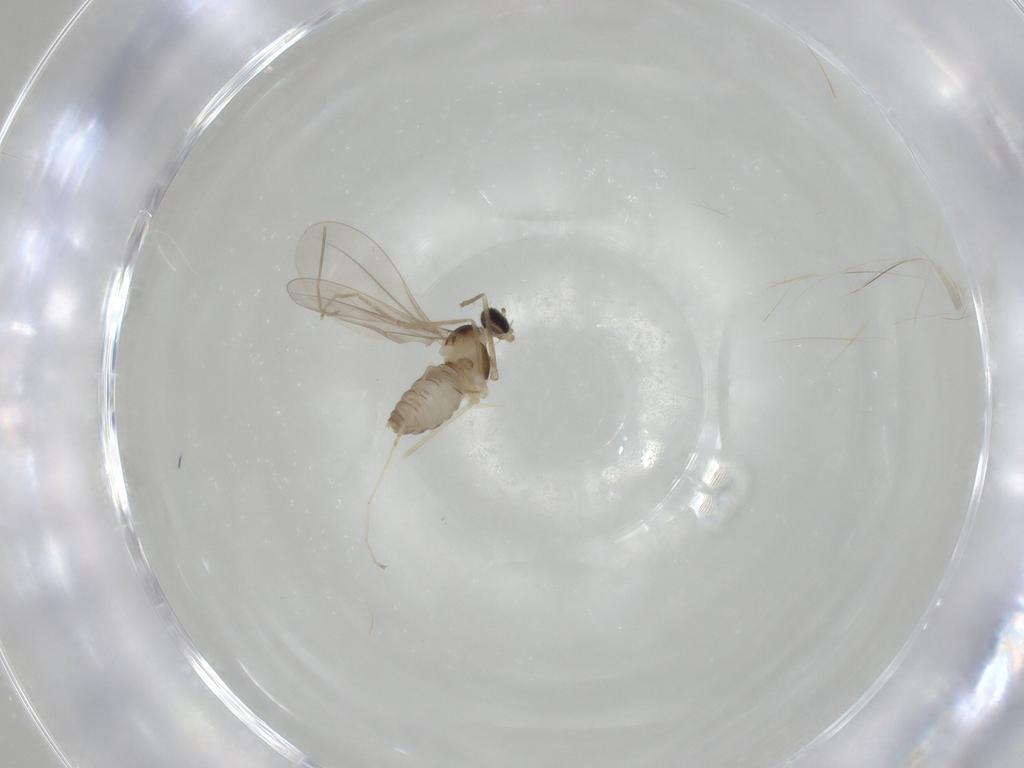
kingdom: Animalia
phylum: Arthropoda
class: Insecta
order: Diptera
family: Cecidomyiidae
